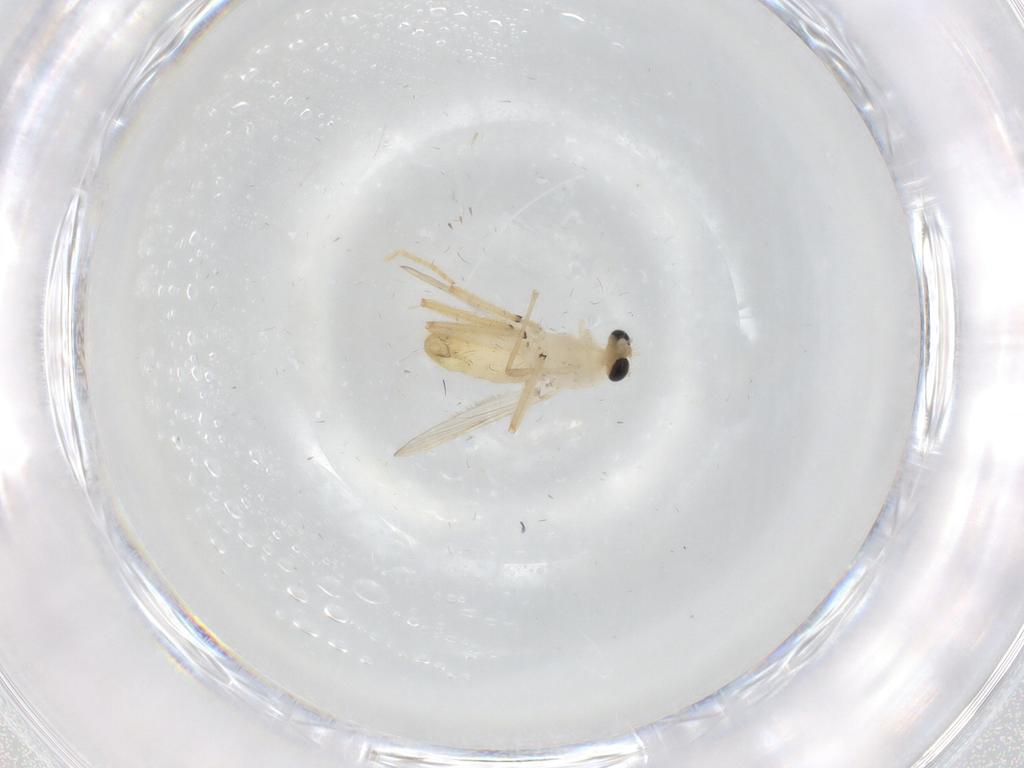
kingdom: Animalia
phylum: Arthropoda
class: Insecta
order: Diptera
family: Chironomidae
